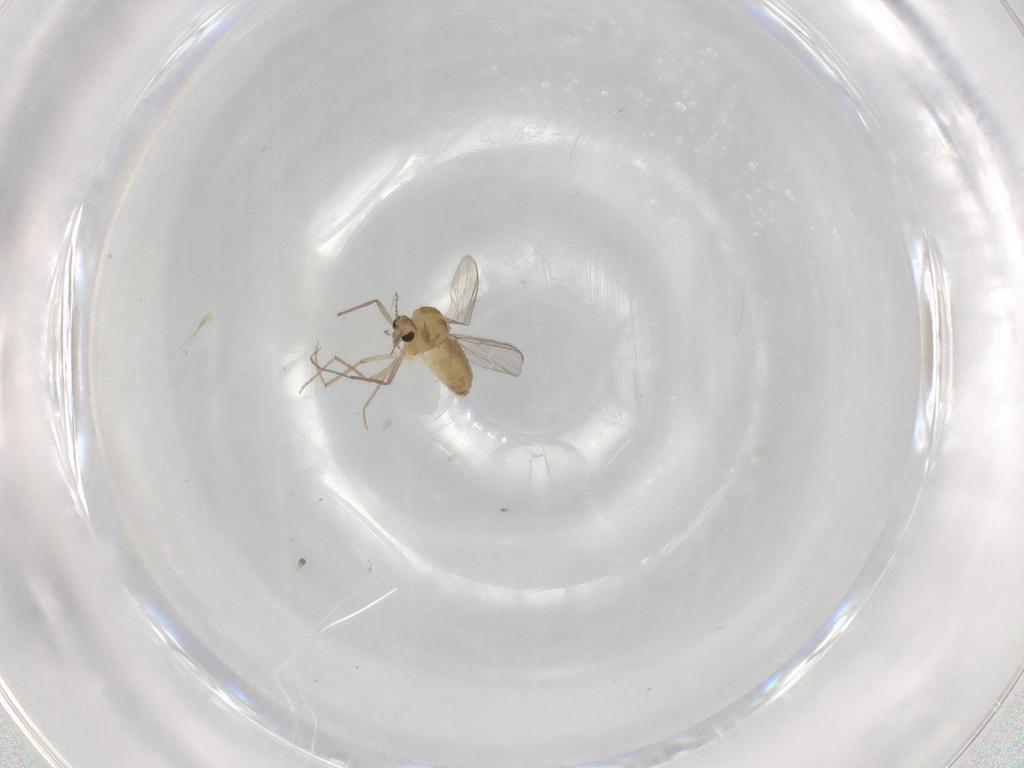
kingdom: Animalia
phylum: Arthropoda
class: Insecta
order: Diptera
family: Chironomidae
